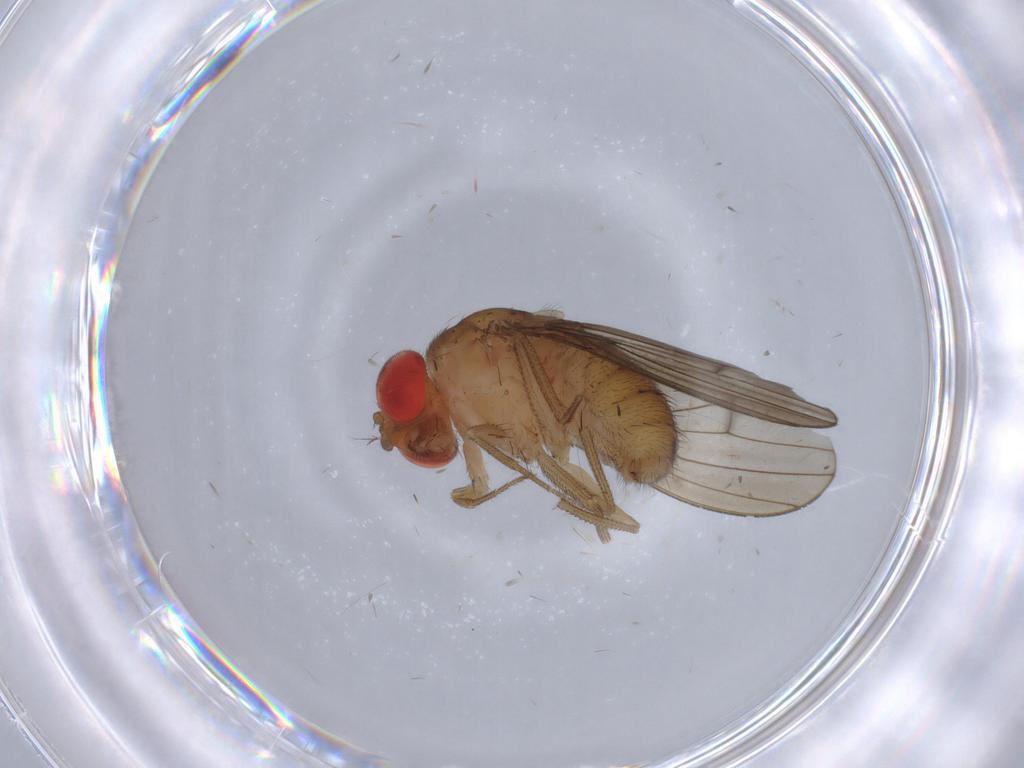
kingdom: Animalia
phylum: Arthropoda
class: Insecta
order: Diptera
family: Drosophilidae
